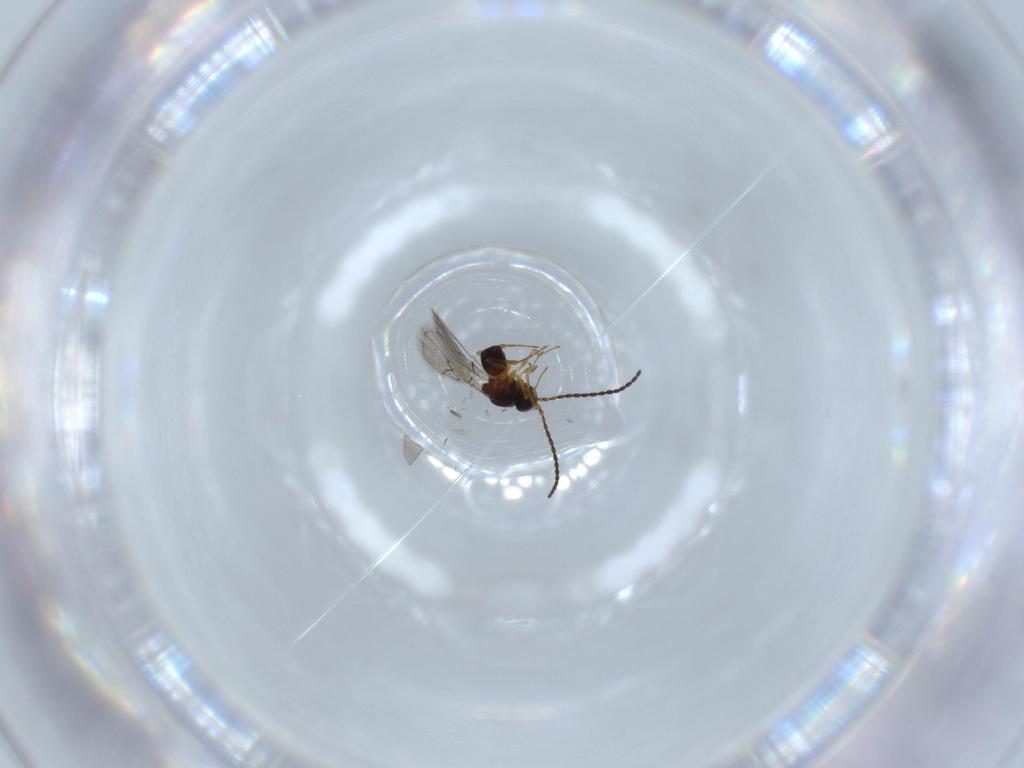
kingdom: Animalia
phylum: Arthropoda
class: Insecta
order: Hymenoptera
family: Figitidae
